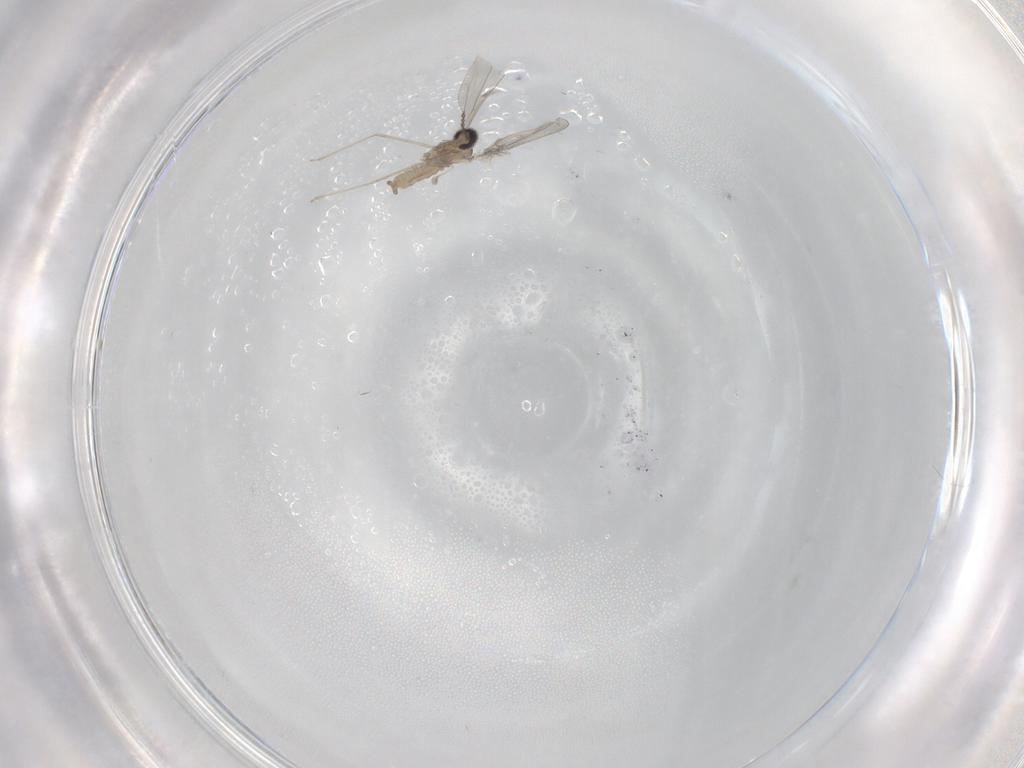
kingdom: Animalia
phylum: Arthropoda
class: Insecta
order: Diptera
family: Cecidomyiidae
